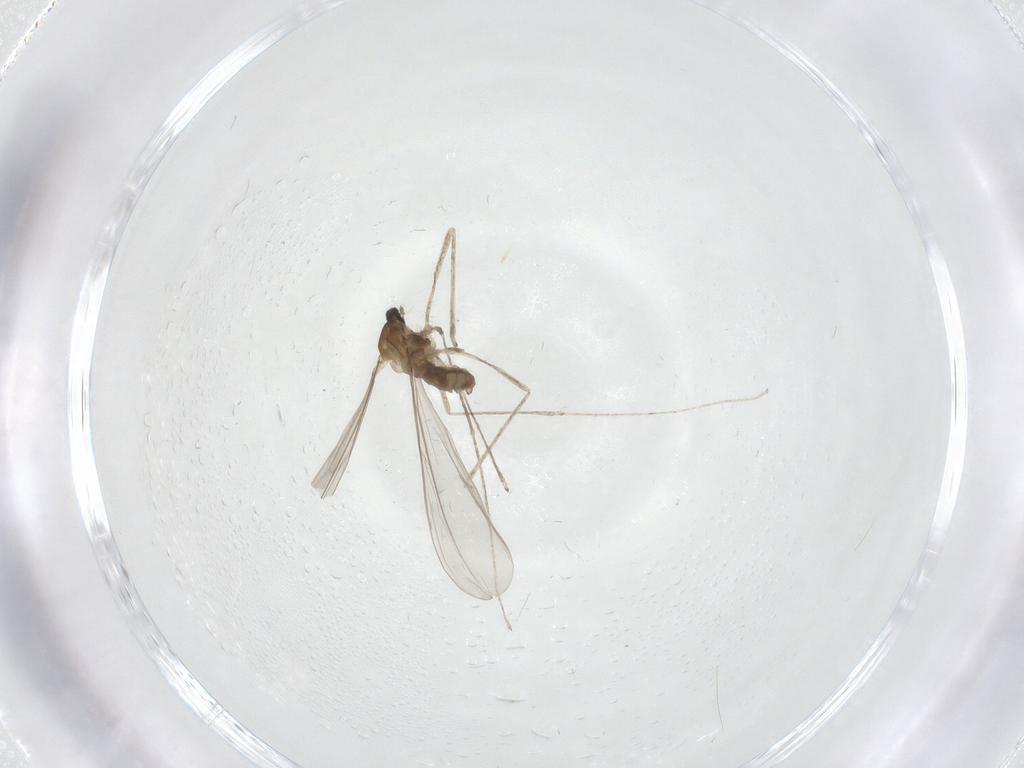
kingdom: Animalia
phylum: Arthropoda
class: Insecta
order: Diptera
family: Cecidomyiidae
